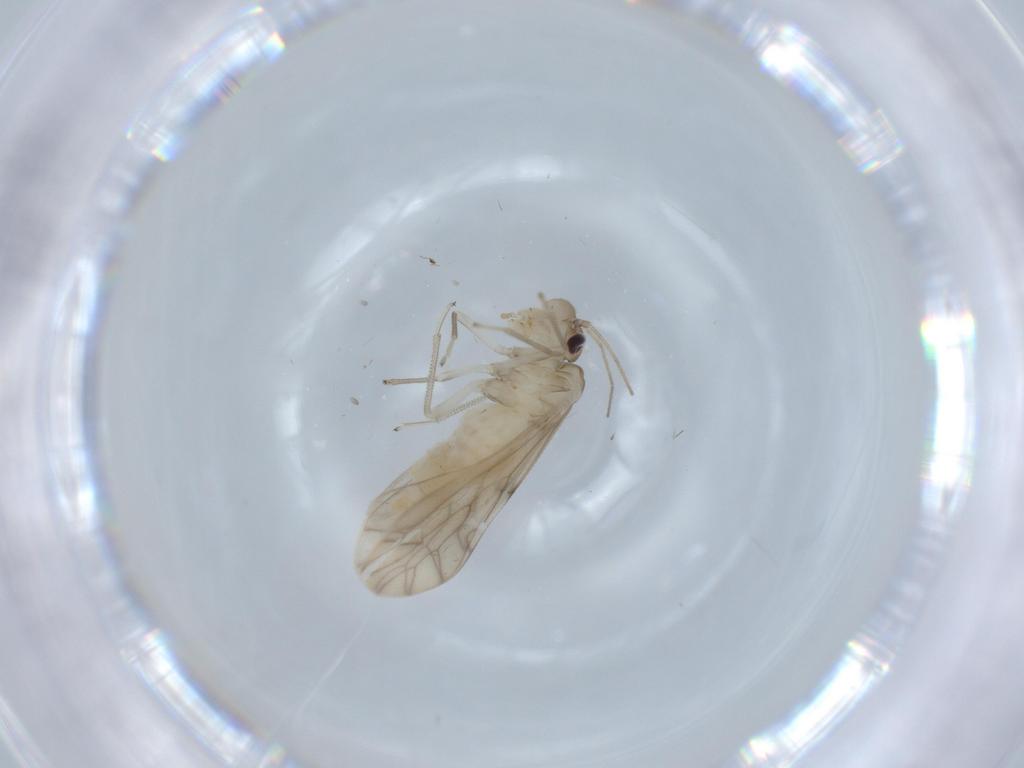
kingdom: Animalia
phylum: Arthropoda
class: Insecta
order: Psocodea
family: Caeciliusidae
